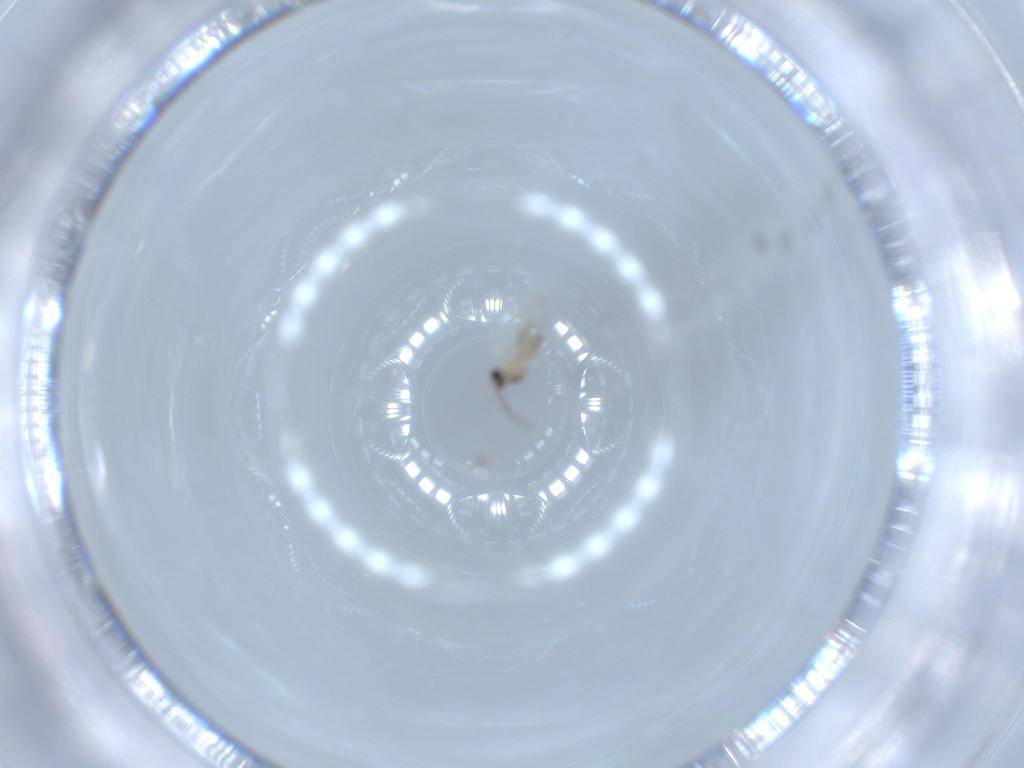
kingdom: Animalia
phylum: Arthropoda
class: Insecta
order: Diptera
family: Cecidomyiidae
